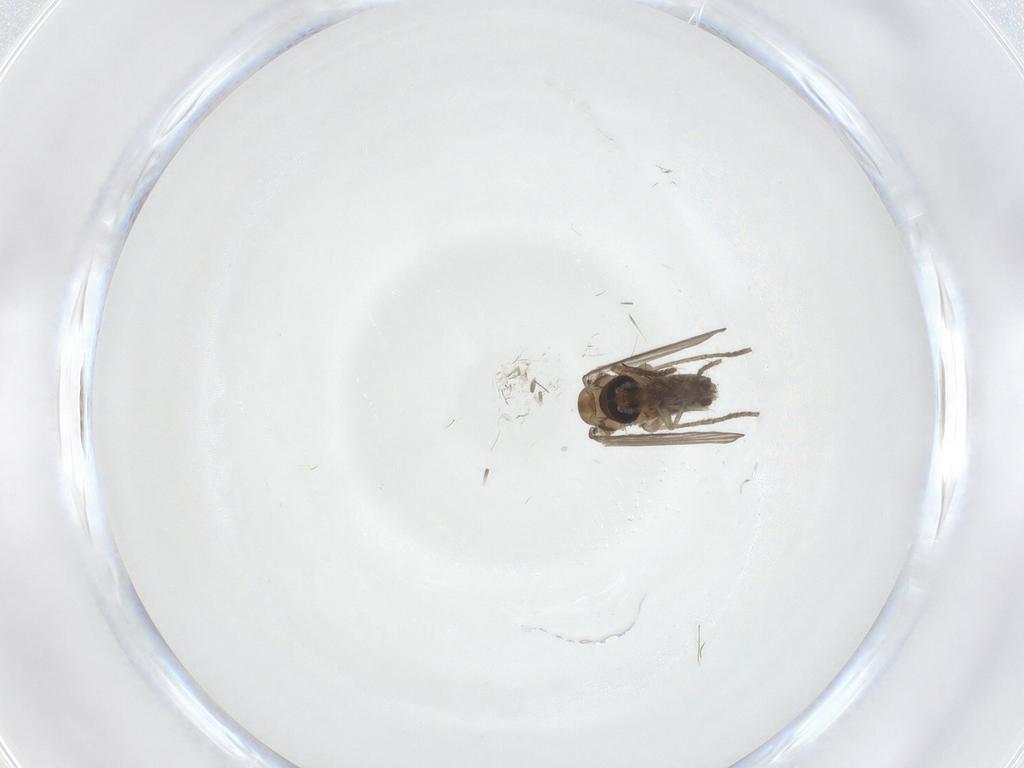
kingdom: Animalia
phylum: Arthropoda
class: Insecta
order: Diptera
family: Psychodidae
